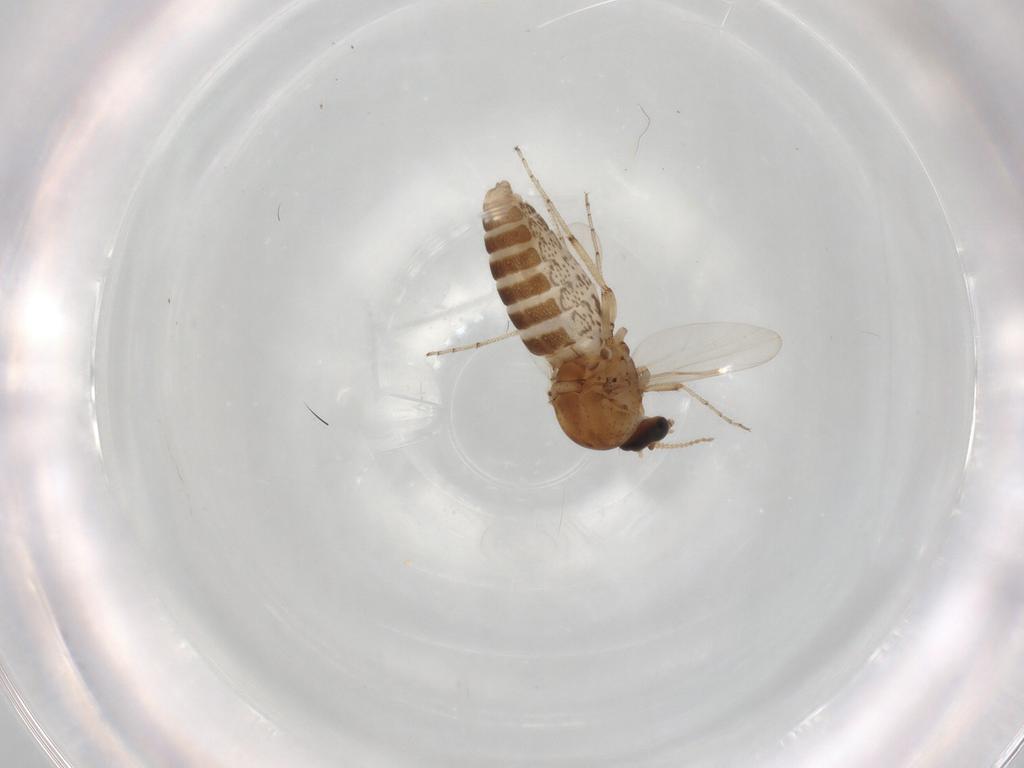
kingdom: Animalia
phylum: Arthropoda
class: Insecta
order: Diptera
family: Ceratopogonidae
